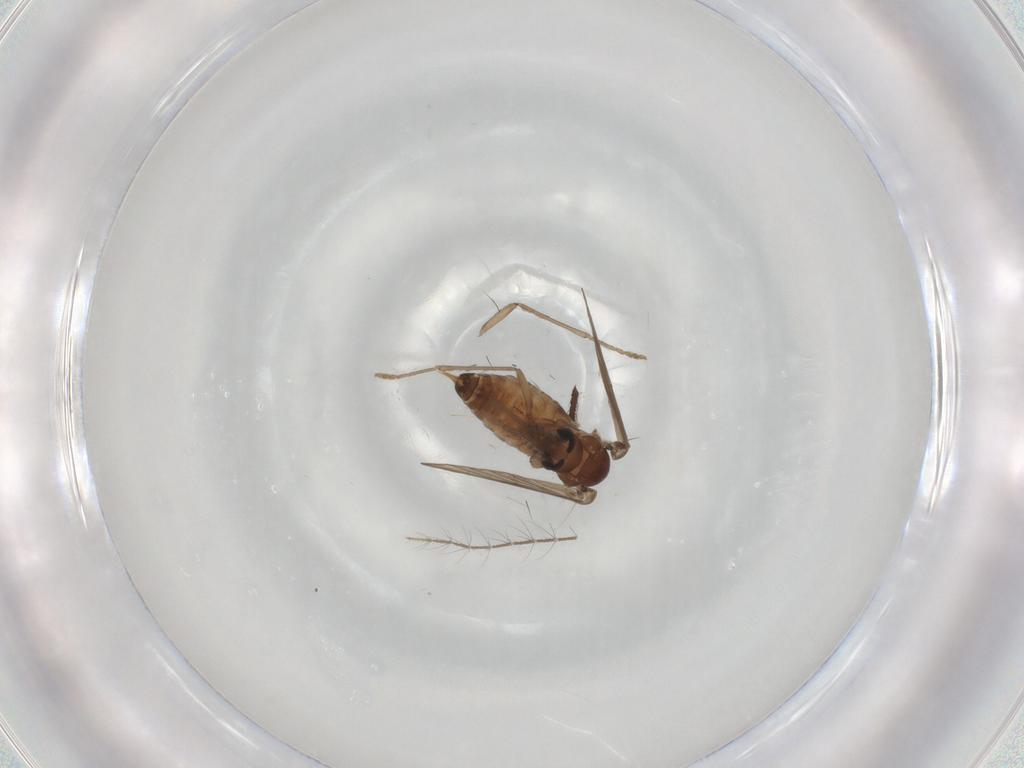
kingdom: Animalia
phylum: Arthropoda
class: Insecta
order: Diptera
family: Psychodidae
